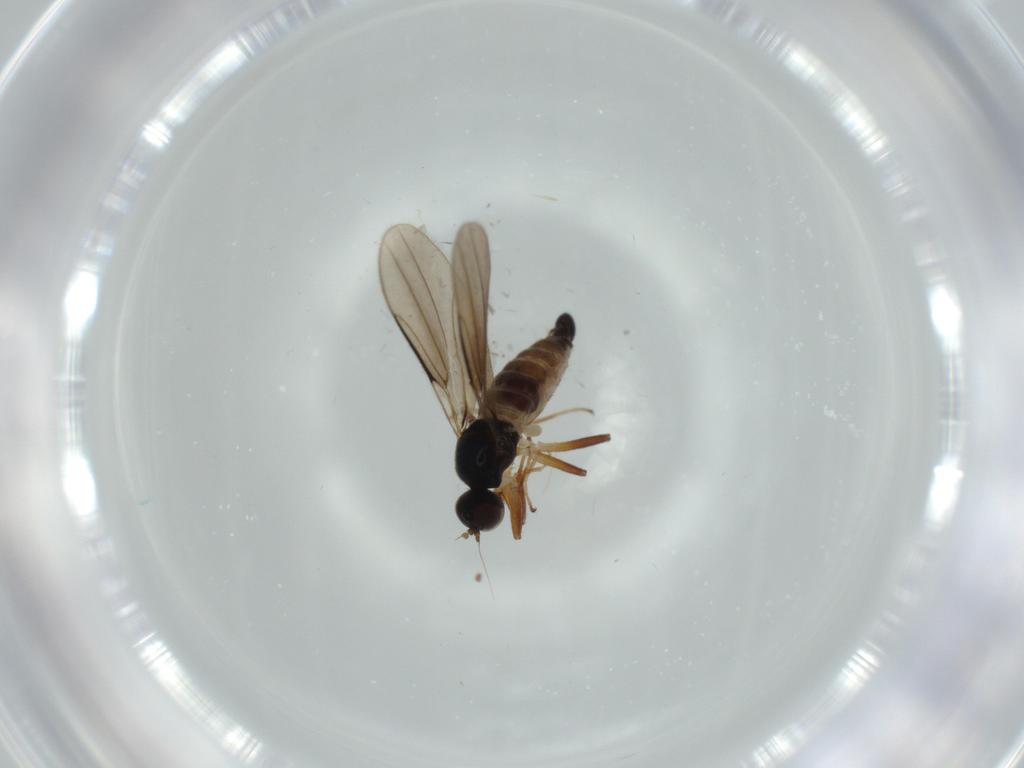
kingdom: Animalia
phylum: Arthropoda
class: Insecta
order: Diptera
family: Hybotidae
